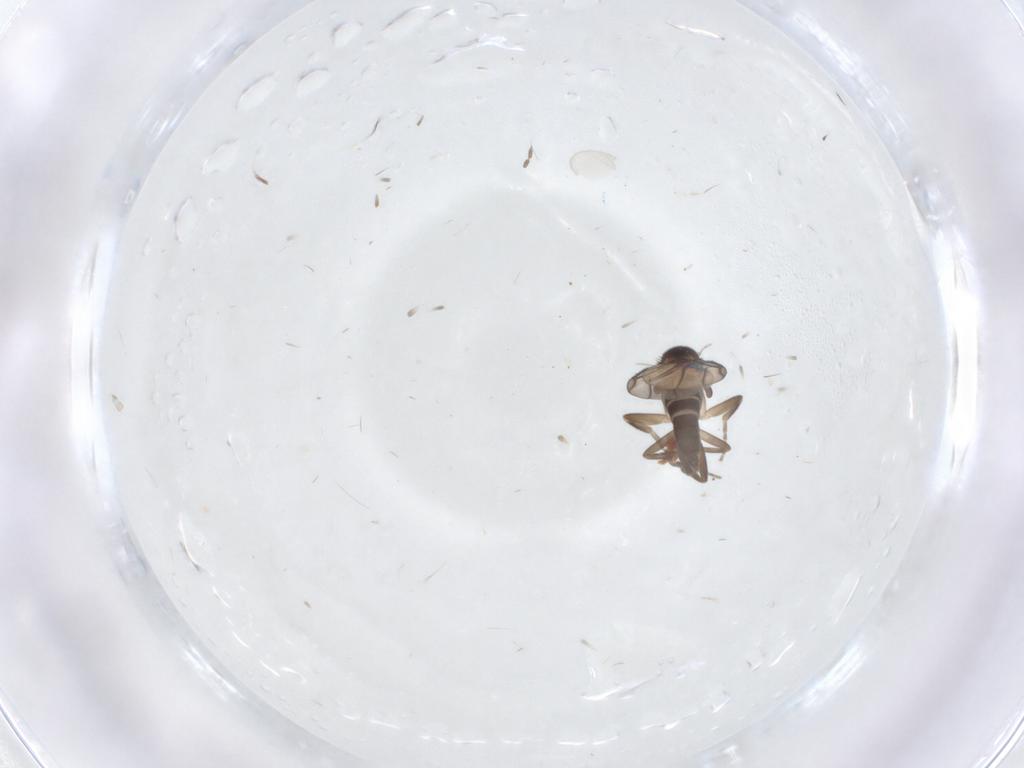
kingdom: Animalia
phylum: Arthropoda
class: Insecta
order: Diptera
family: Cecidomyiidae
